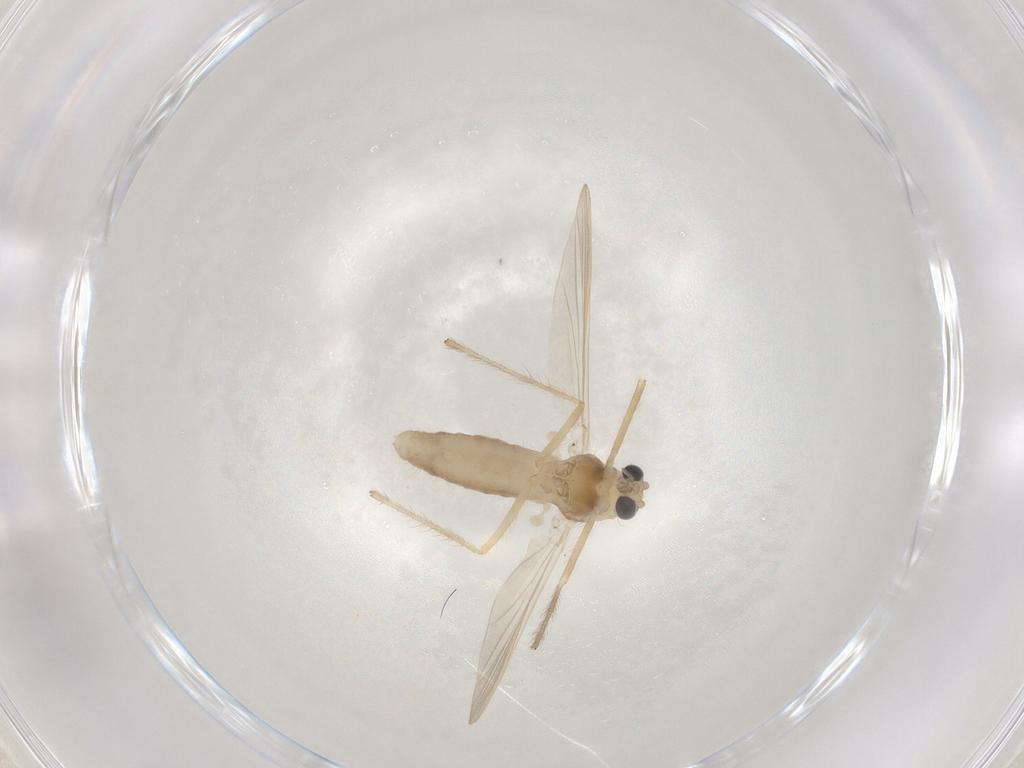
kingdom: Animalia
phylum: Arthropoda
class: Insecta
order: Diptera
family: Chironomidae
